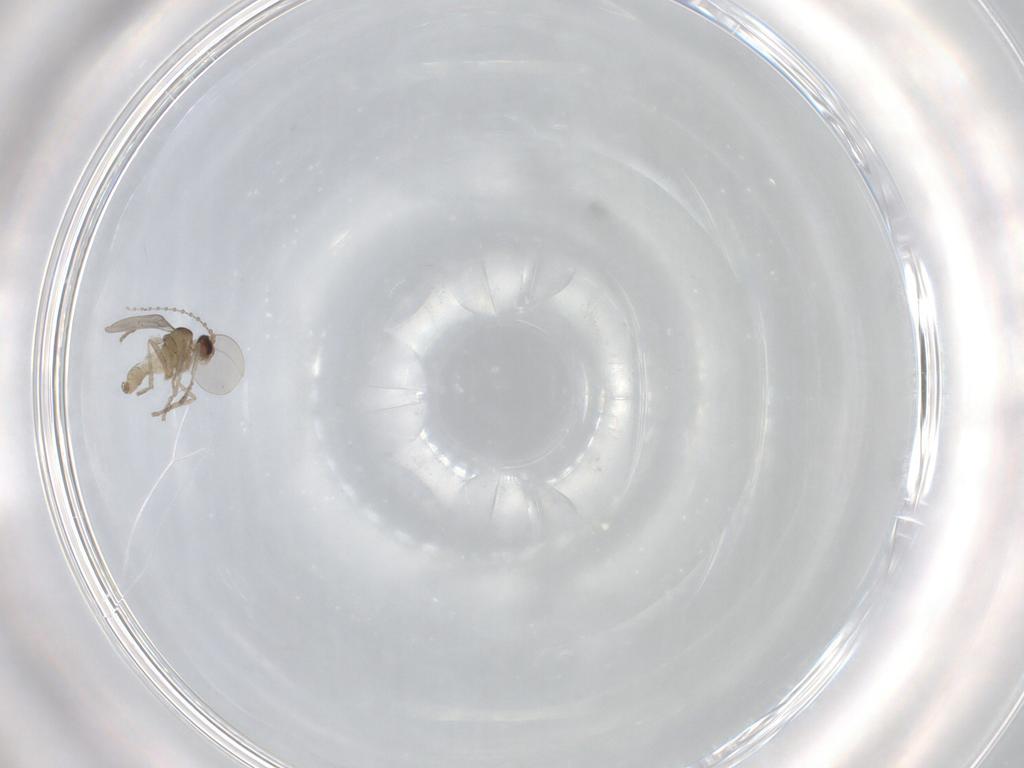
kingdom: Animalia
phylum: Arthropoda
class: Insecta
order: Diptera
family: Cecidomyiidae
